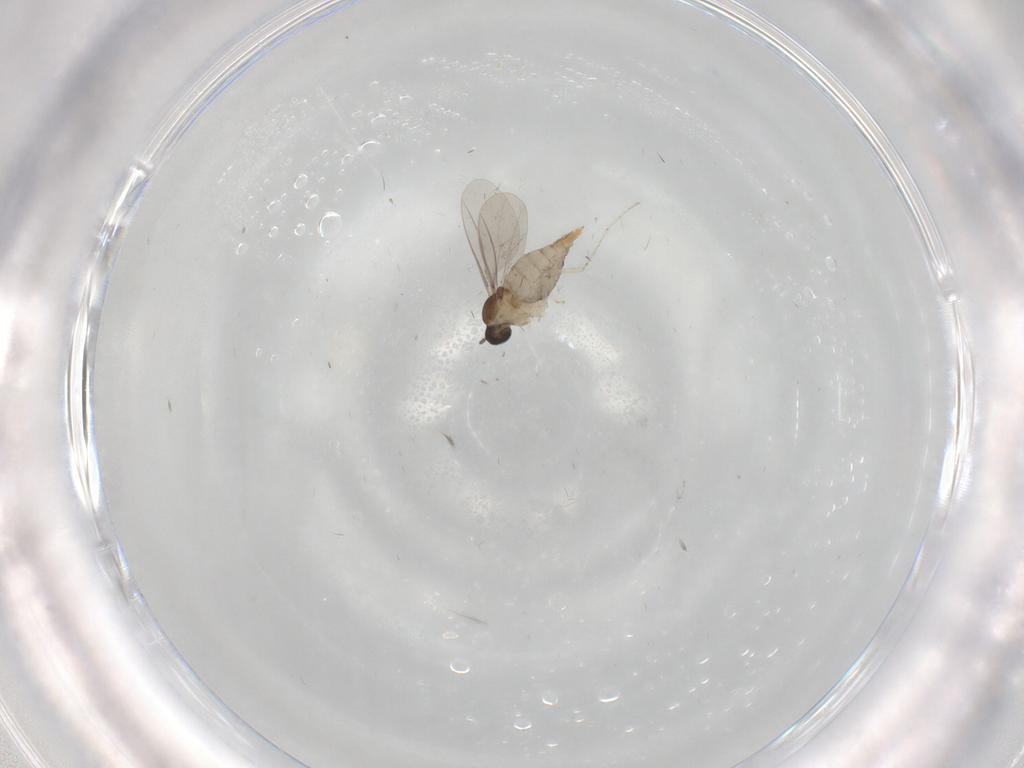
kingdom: Animalia
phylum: Arthropoda
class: Insecta
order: Diptera
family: Cecidomyiidae
